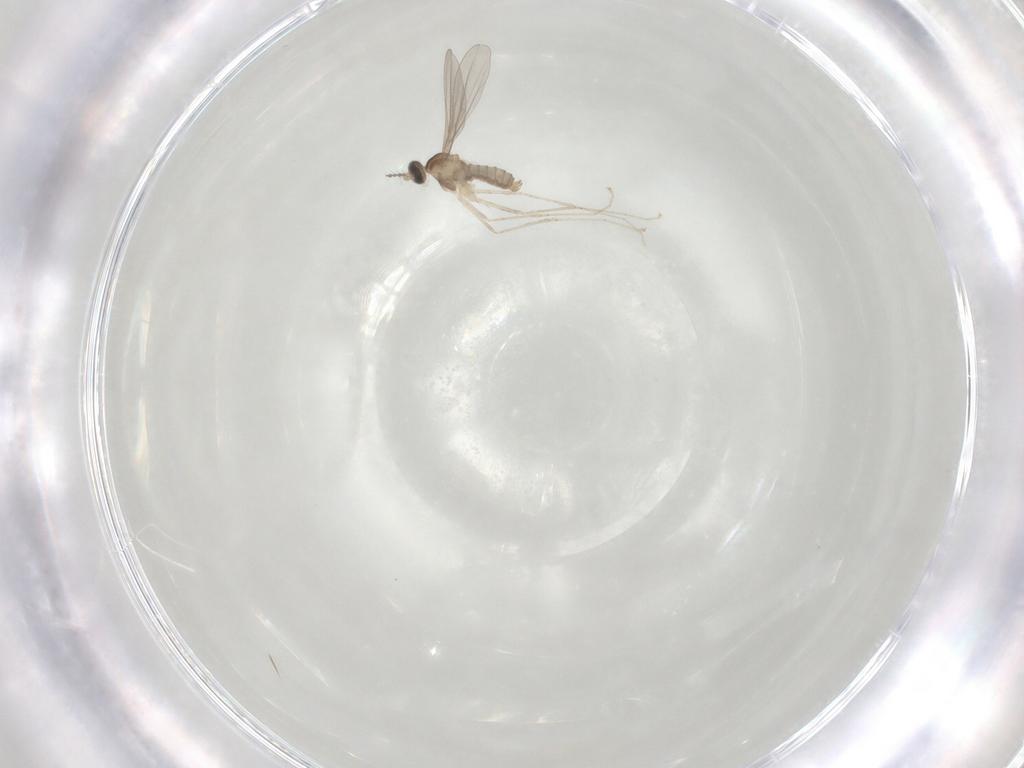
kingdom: Animalia
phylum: Arthropoda
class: Insecta
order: Diptera
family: Cecidomyiidae
